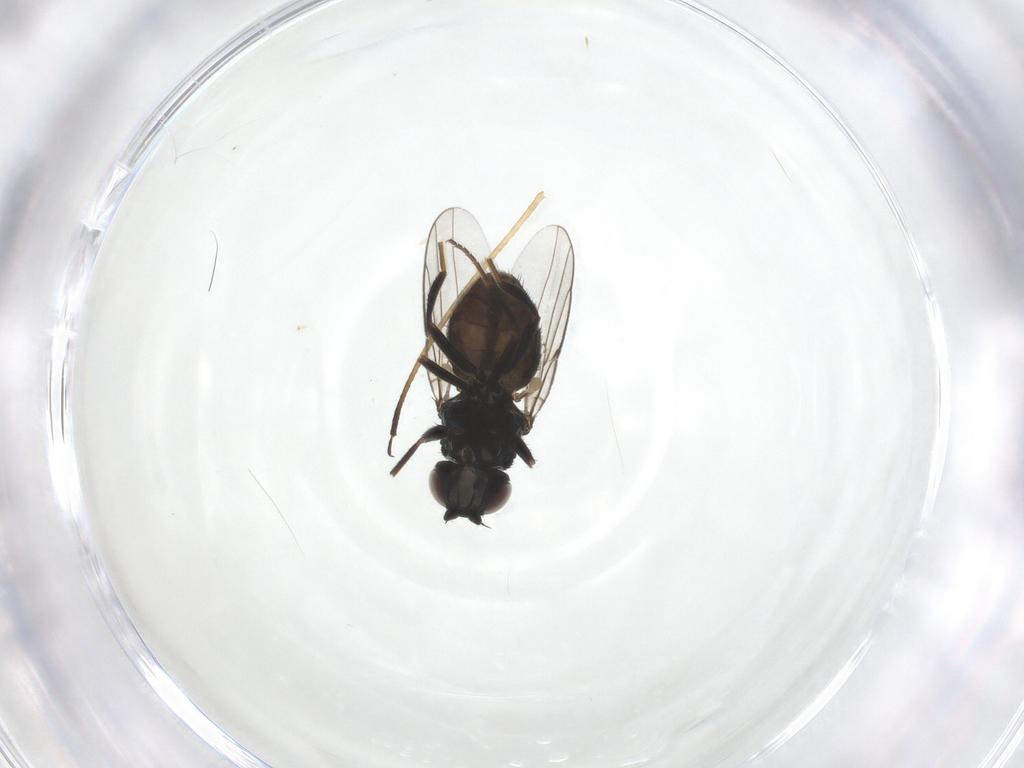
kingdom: Animalia
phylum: Arthropoda
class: Insecta
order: Diptera
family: Chloropidae
